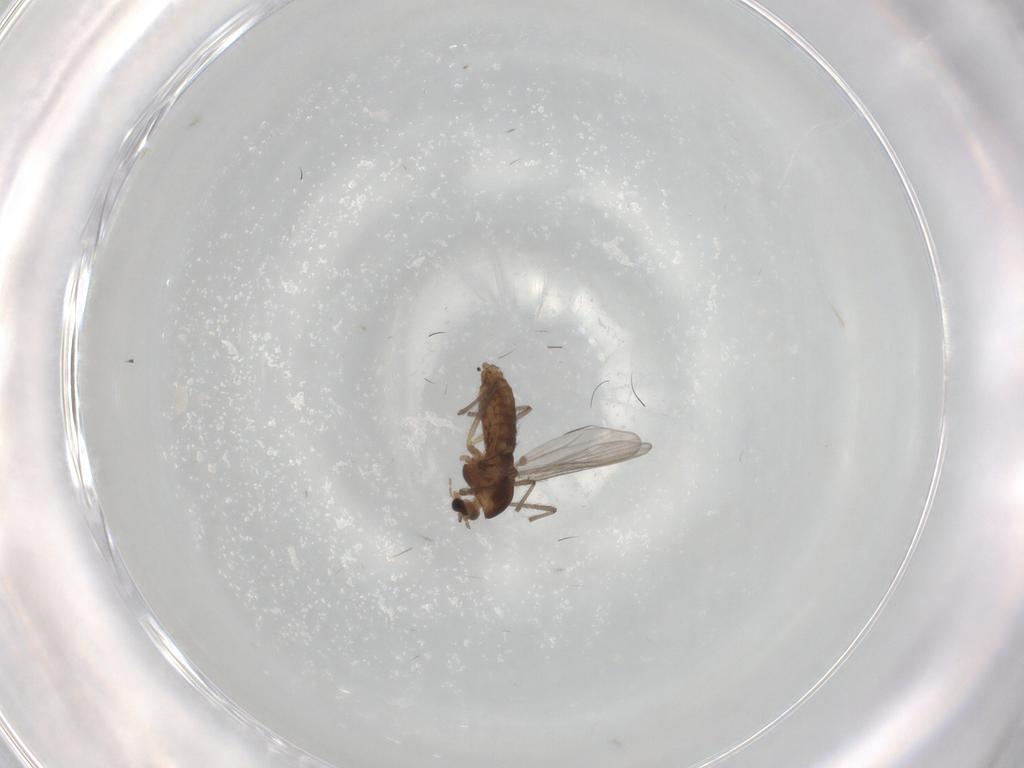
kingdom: Animalia
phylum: Arthropoda
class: Insecta
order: Diptera
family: Chironomidae
